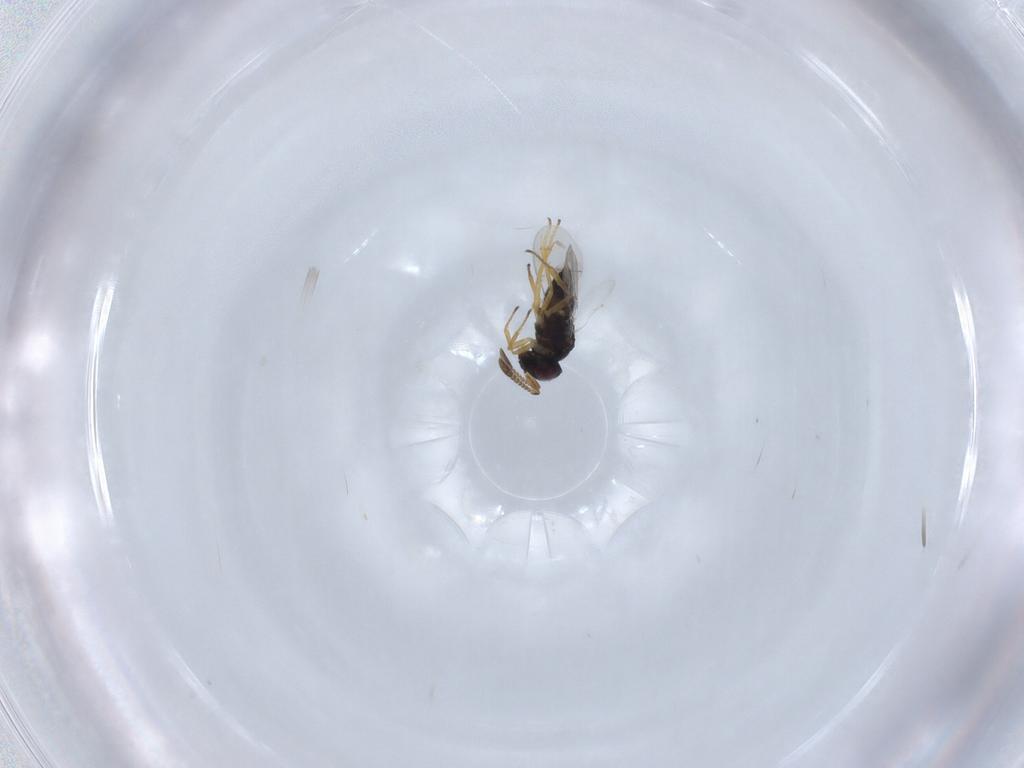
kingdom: Animalia
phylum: Arthropoda
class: Insecta
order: Hymenoptera
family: Encyrtidae
